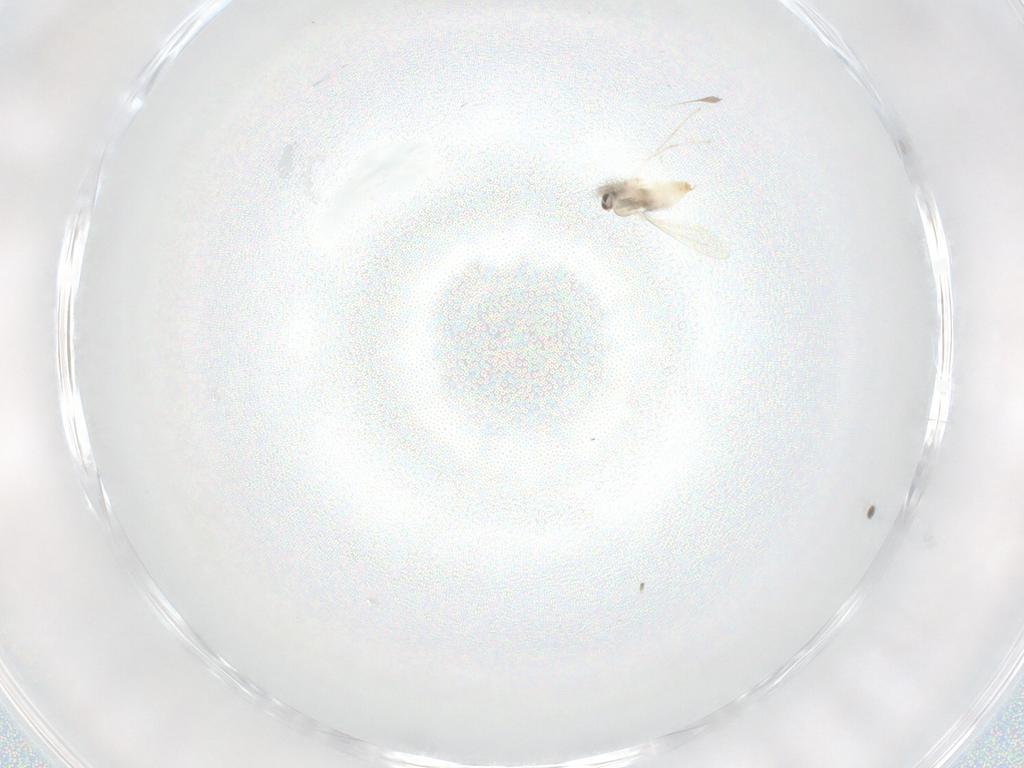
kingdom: Animalia
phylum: Arthropoda
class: Insecta
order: Diptera
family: Cecidomyiidae
